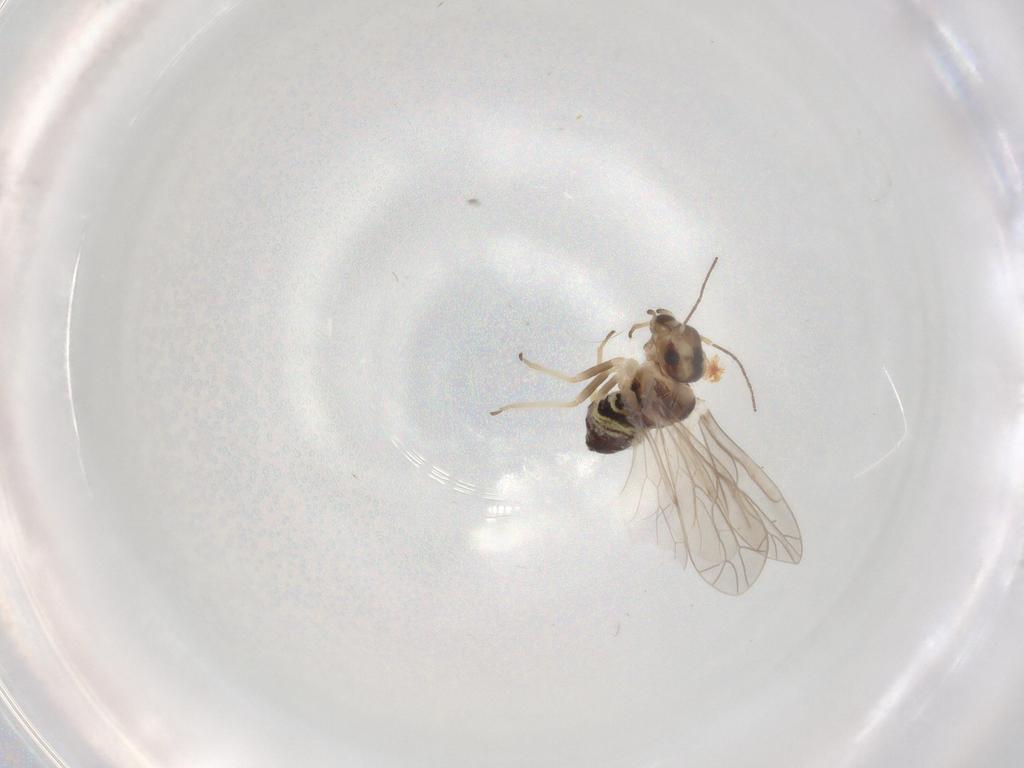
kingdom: Animalia
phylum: Arthropoda
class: Insecta
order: Psocodea
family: Ectopsocidae
